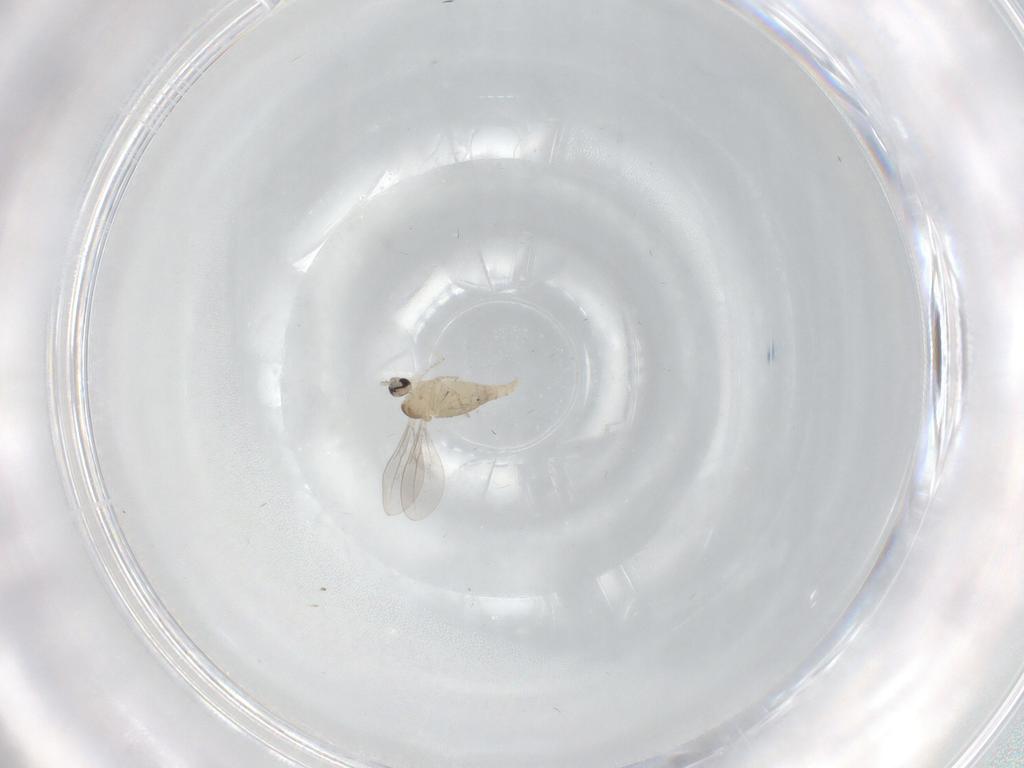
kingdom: Animalia
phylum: Arthropoda
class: Insecta
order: Diptera
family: Cecidomyiidae
